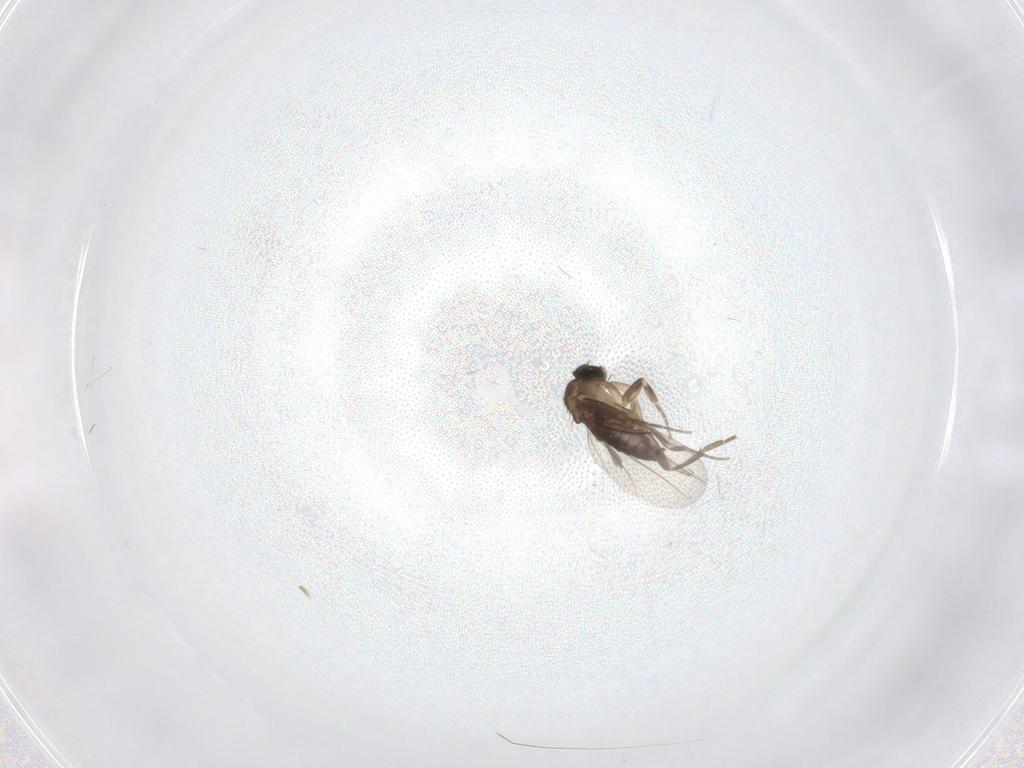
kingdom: Animalia
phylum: Arthropoda
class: Insecta
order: Diptera
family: Phoridae
